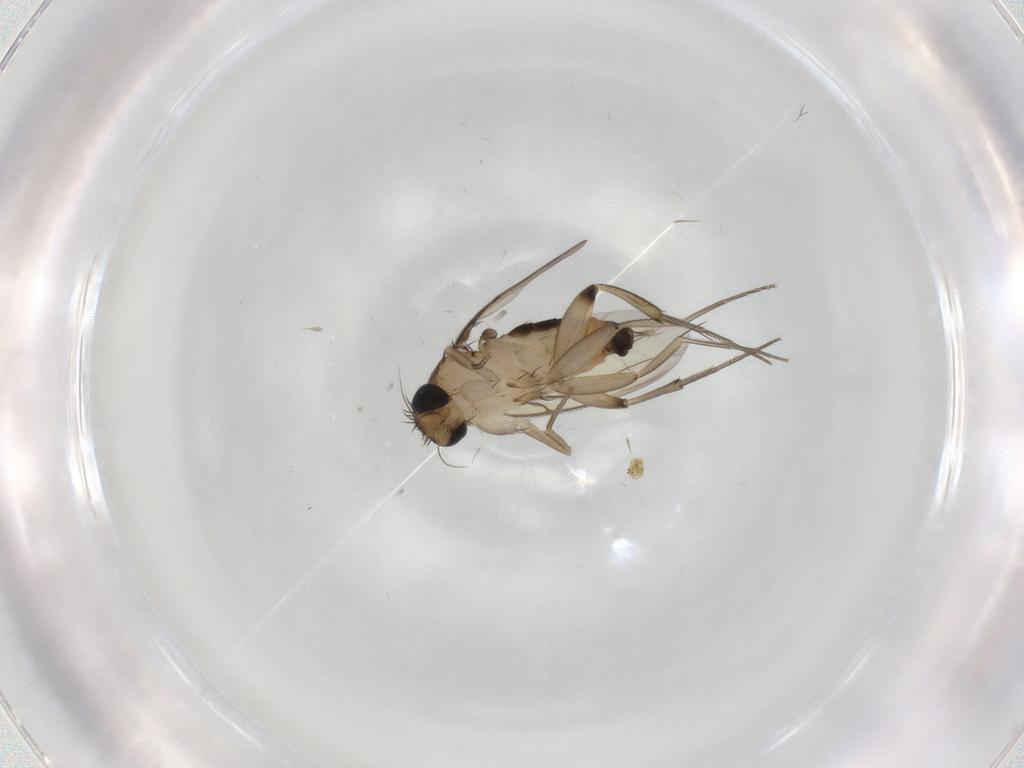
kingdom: Animalia
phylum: Arthropoda
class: Insecta
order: Diptera
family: Phoridae
